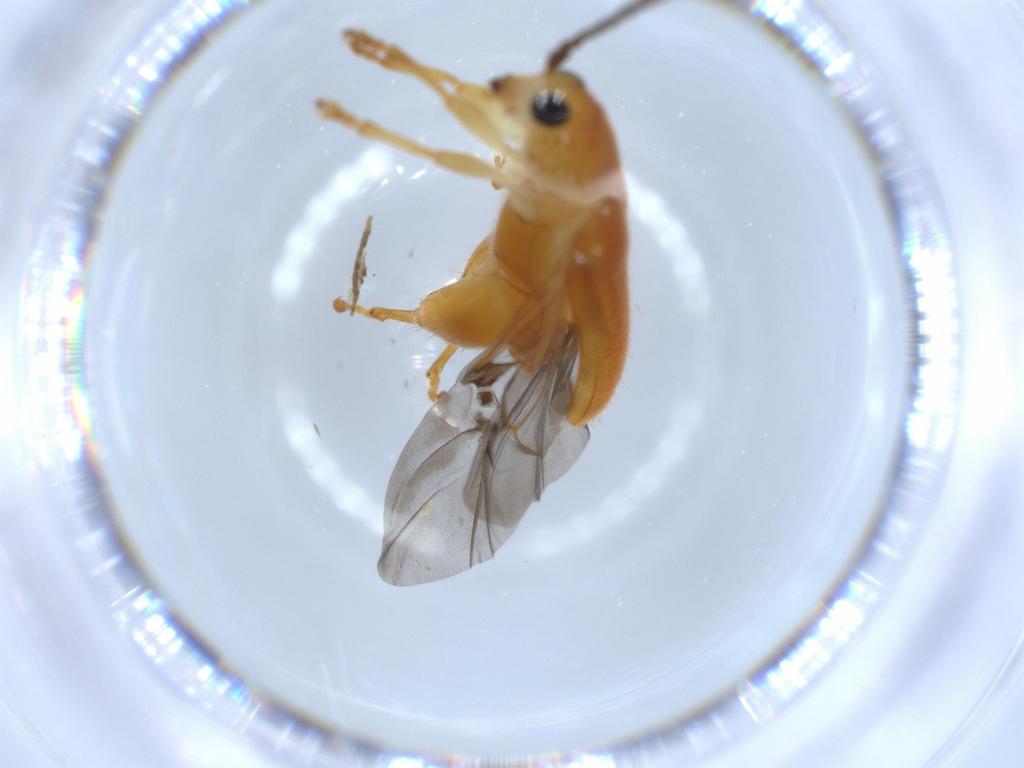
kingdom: Animalia
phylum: Arthropoda
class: Insecta
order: Coleoptera
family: Chrysomelidae
